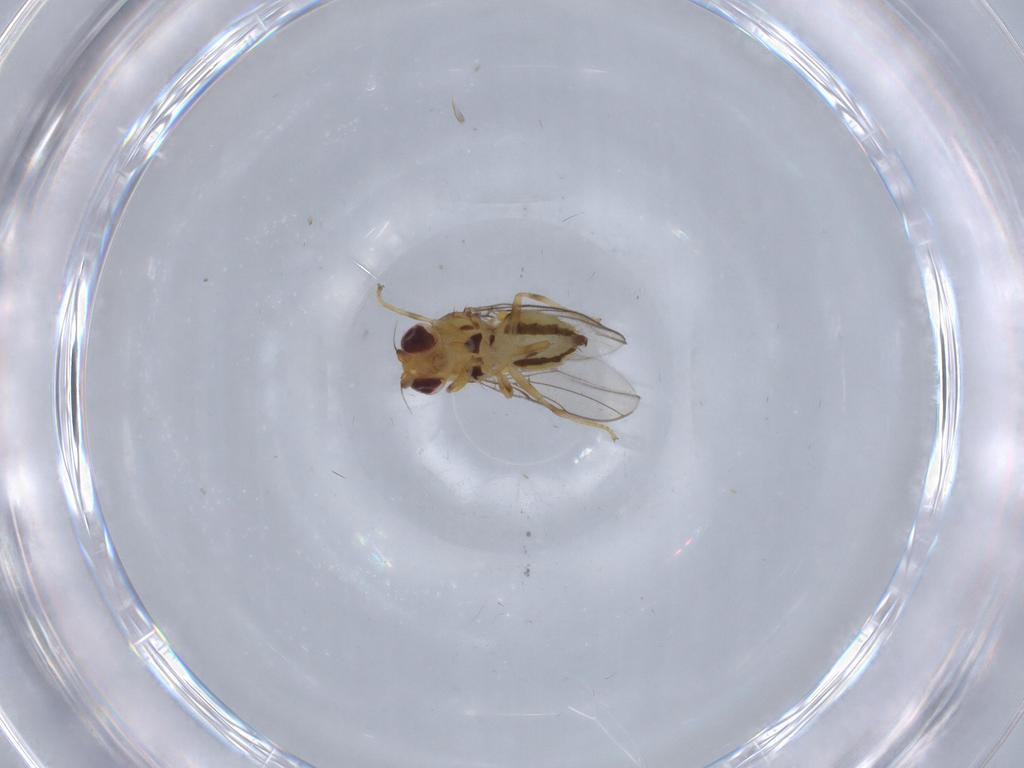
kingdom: Animalia
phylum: Arthropoda
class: Insecta
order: Diptera
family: Chloropidae
